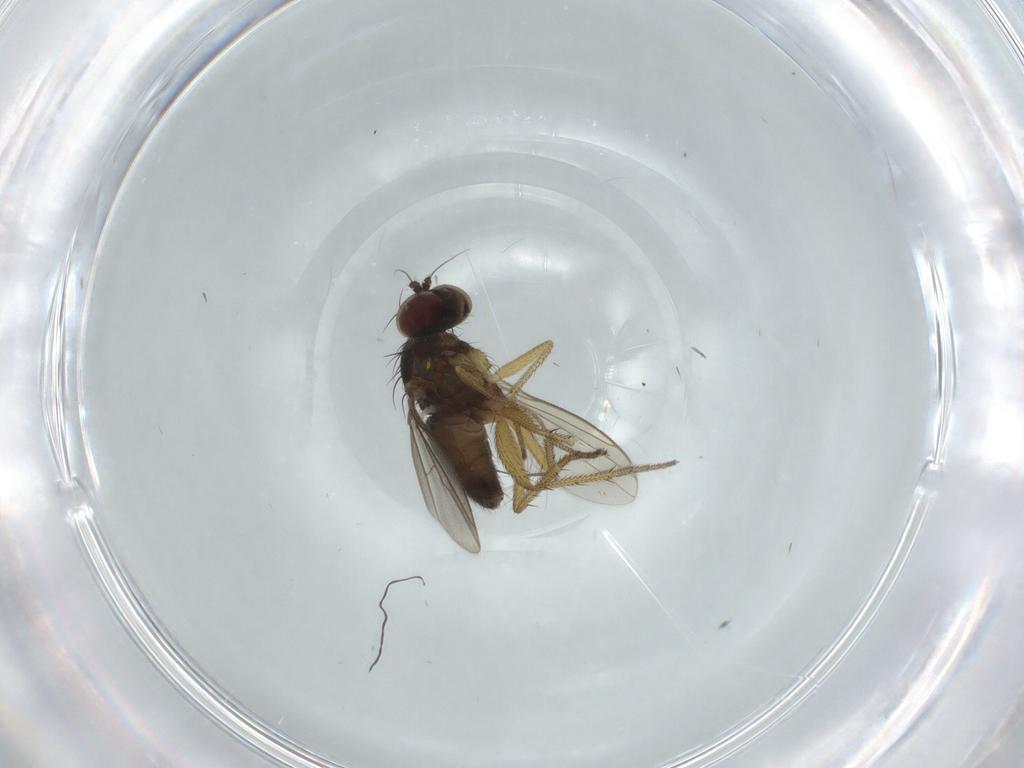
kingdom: Animalia
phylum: Arthropoda
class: Insecta
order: Diptera
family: Dolichopodidae
